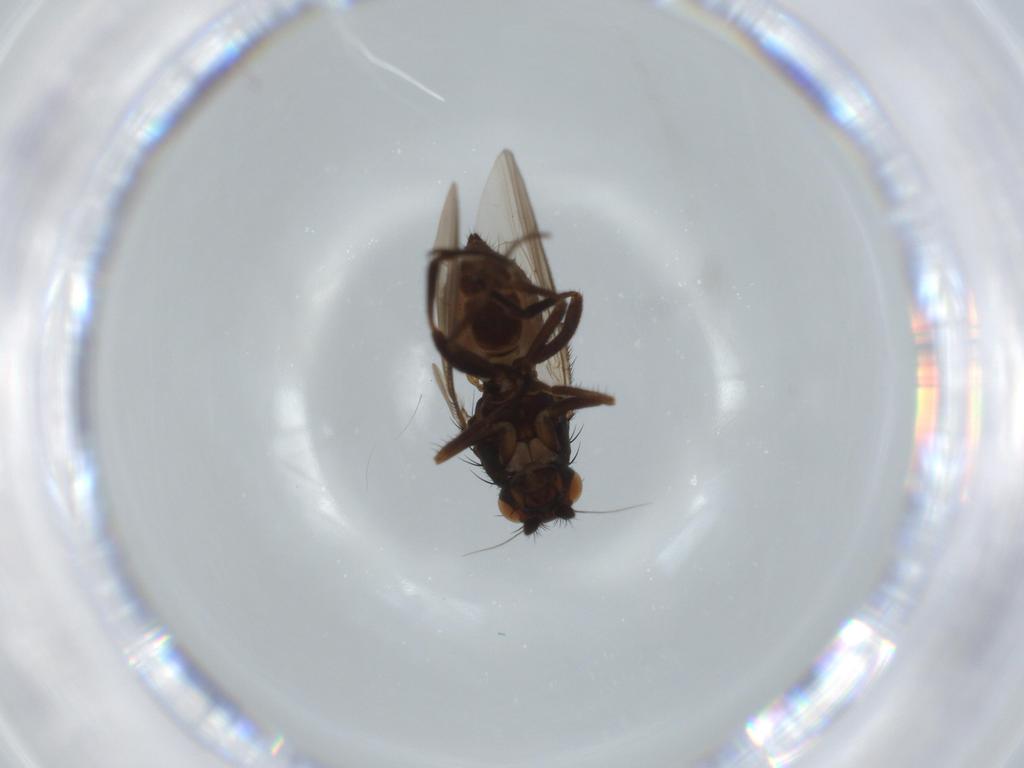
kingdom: Animalia
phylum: Arthropoda
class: Insecta
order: Diptera
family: Sphaeroceridae
